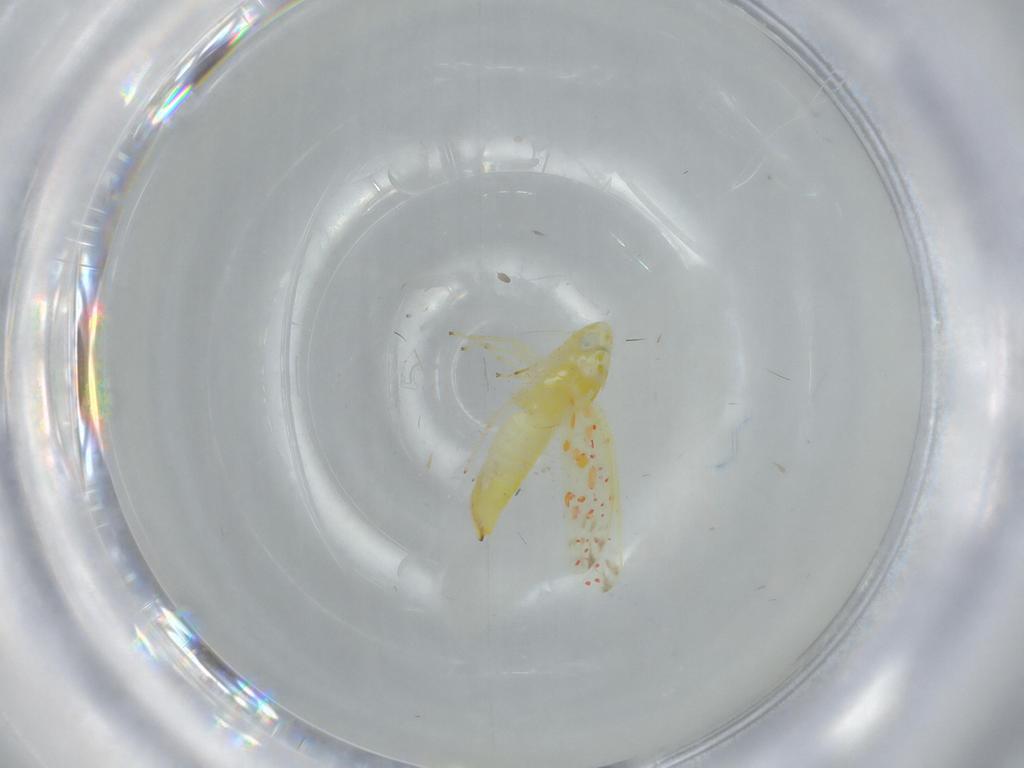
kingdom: Animalia
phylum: Arthropoda
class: Insecta
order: Hemiptera
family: Cicadellidae
